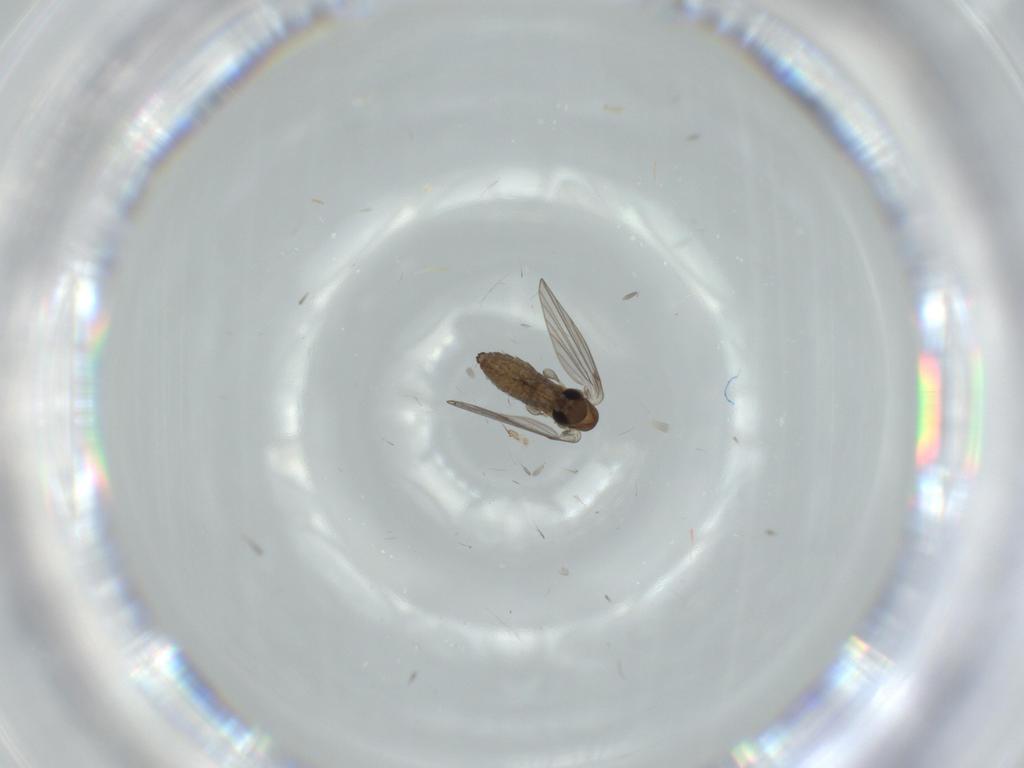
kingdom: Animalia
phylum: Arthropoda
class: Insecta
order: Diptera
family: Psychodidae
